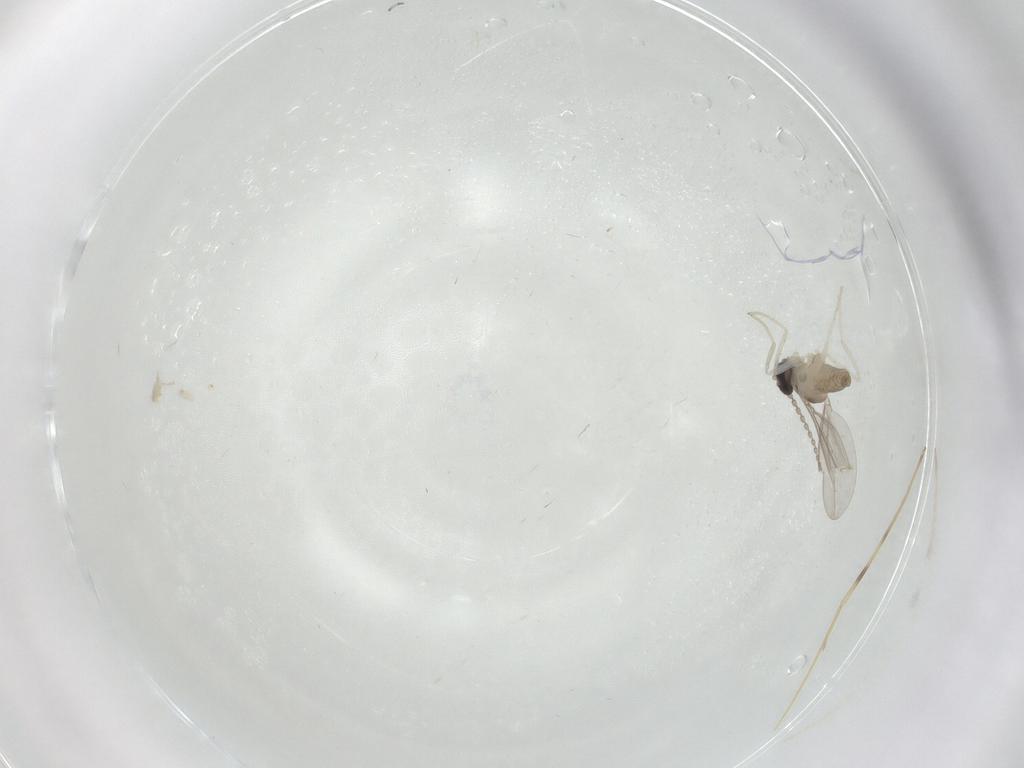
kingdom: Animalia
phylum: Arthropoda
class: Insecta
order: Diptera
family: Cecidomyiidae
